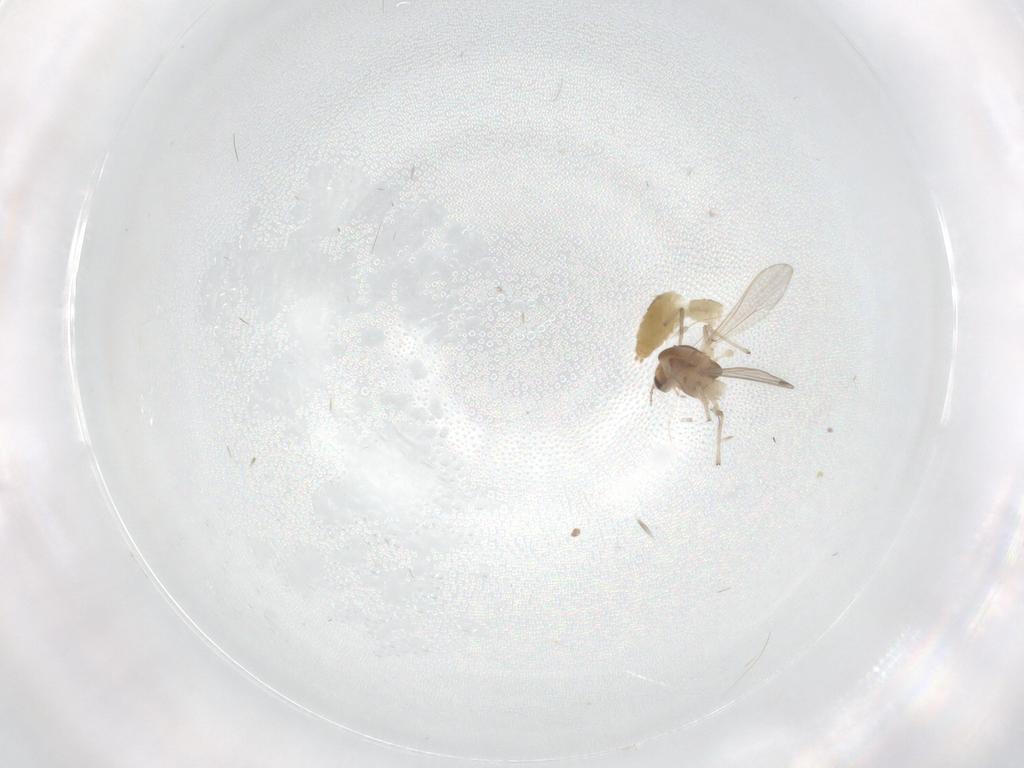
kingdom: Animalia
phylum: Arthropoda
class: Insecta
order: Diptera
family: Chironomidae
